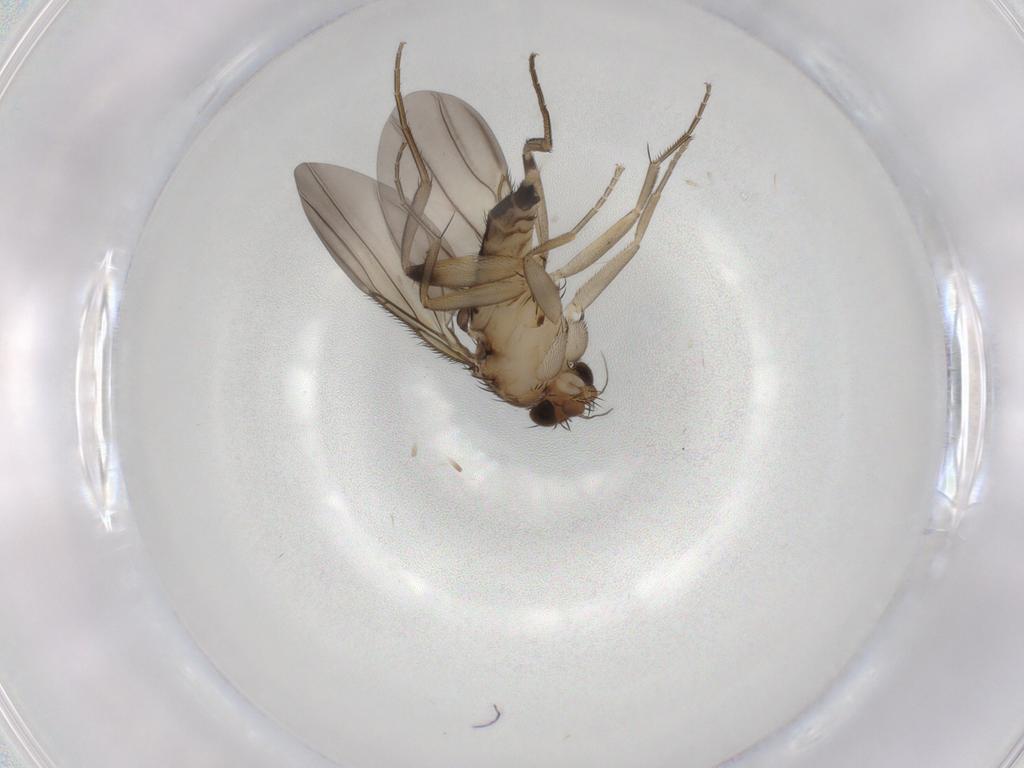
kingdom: Animalia
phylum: Arthropoda
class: Insecta
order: Diptera
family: Phoridae
